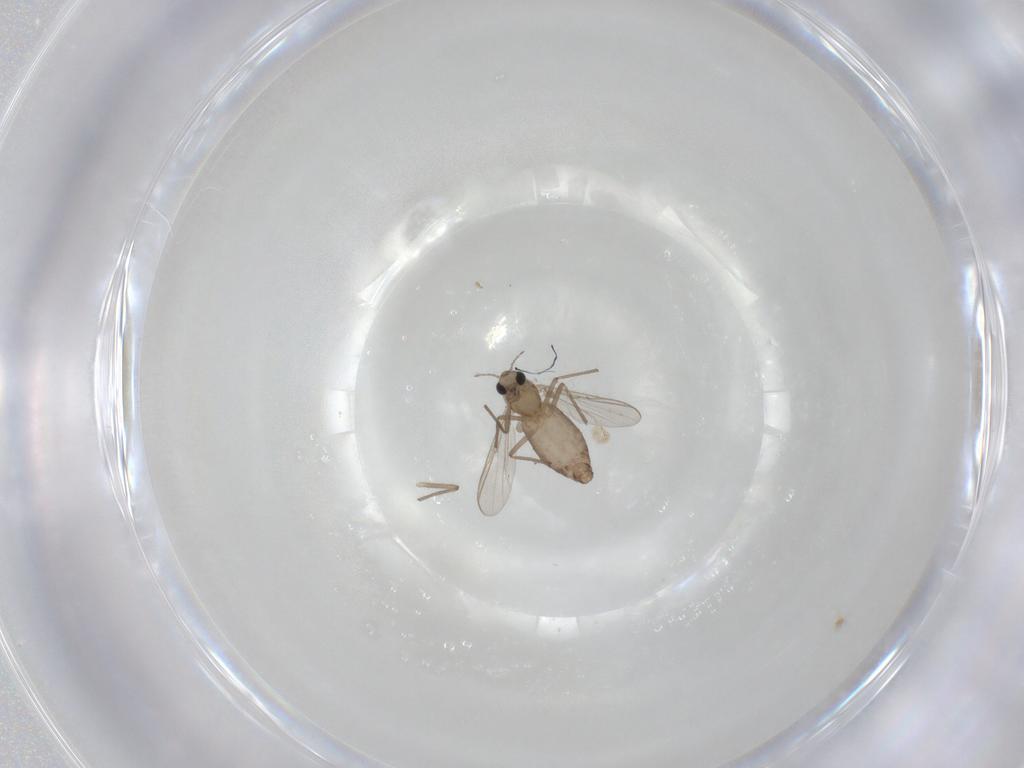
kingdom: Animalia
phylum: Arthropoda
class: Insecta
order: Diptera
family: Chironomidae
